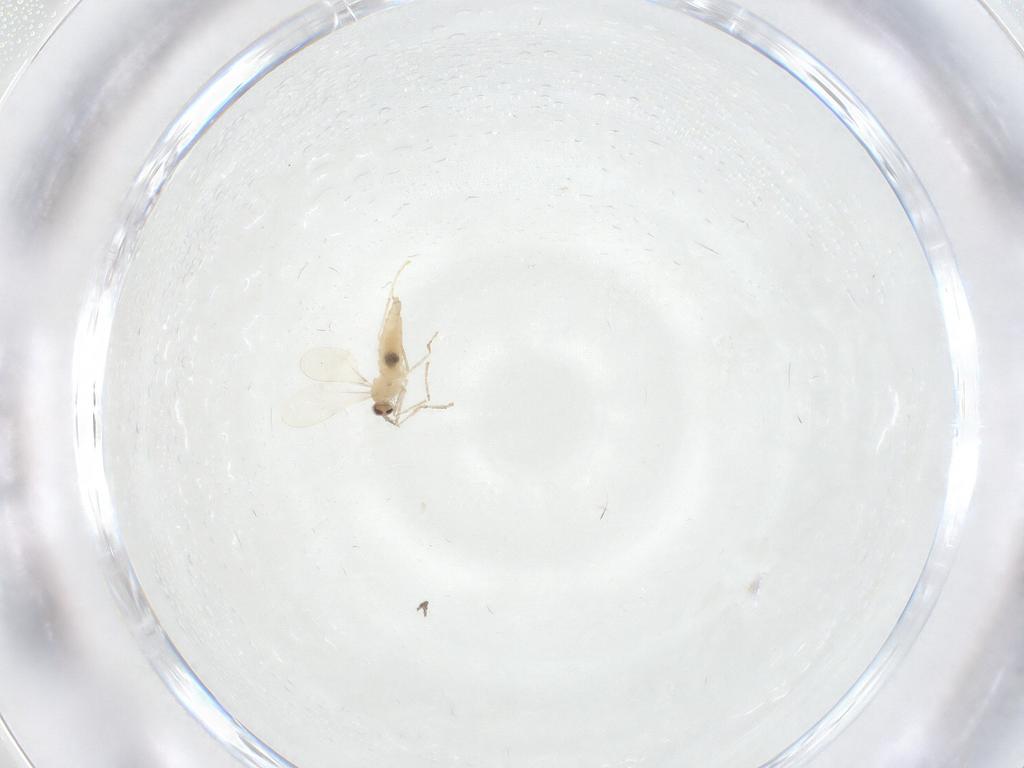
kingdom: Animalia
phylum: Arthropoda
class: Insecta
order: Diptera
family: Cecidomyiidae
